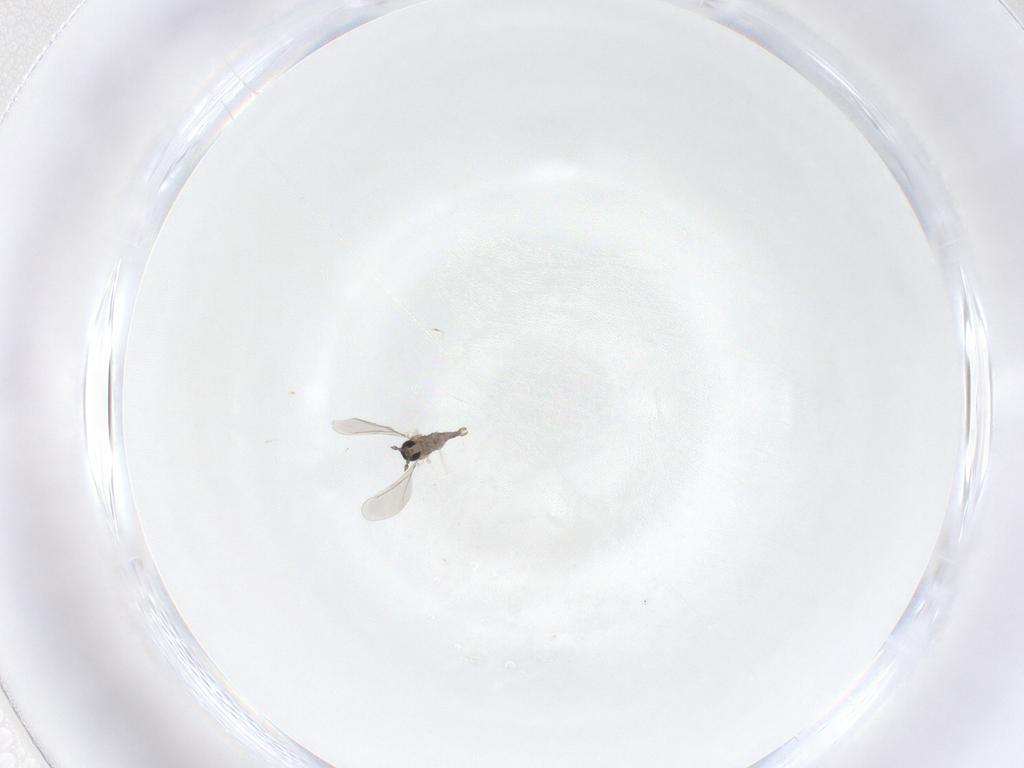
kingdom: Animalia
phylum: Arthropoda
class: Insecta
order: Diptera
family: Cecidomyiidae
